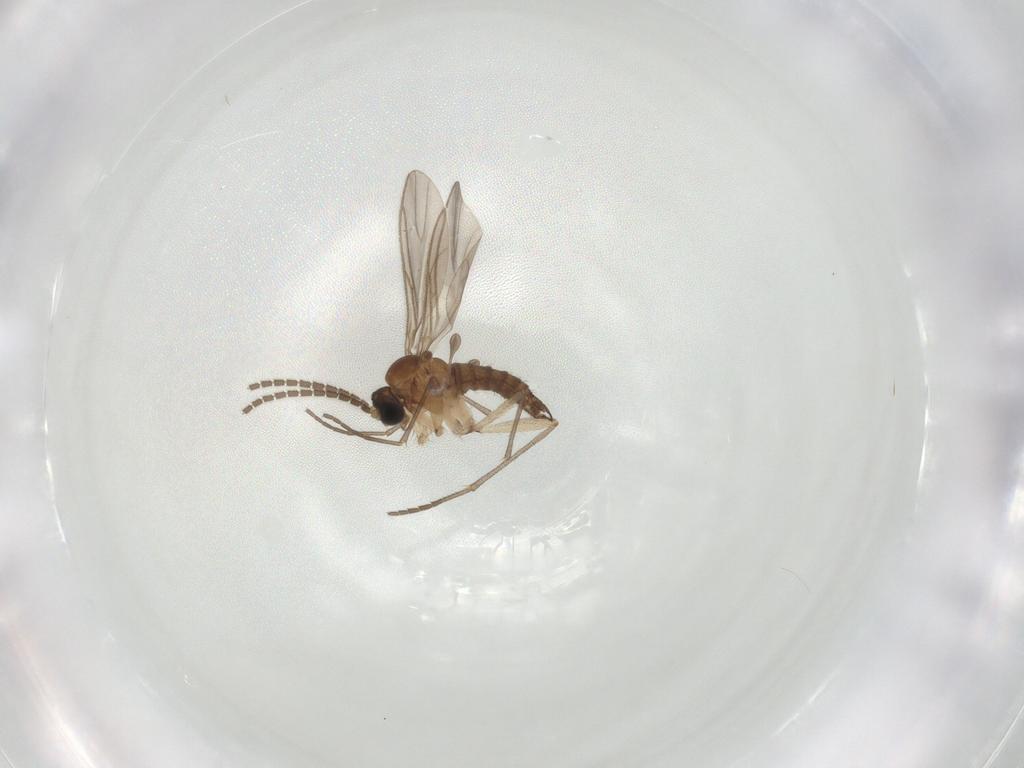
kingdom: Animalia
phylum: Arthropoda
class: Insecta
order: Diptera
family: Sciaridae
